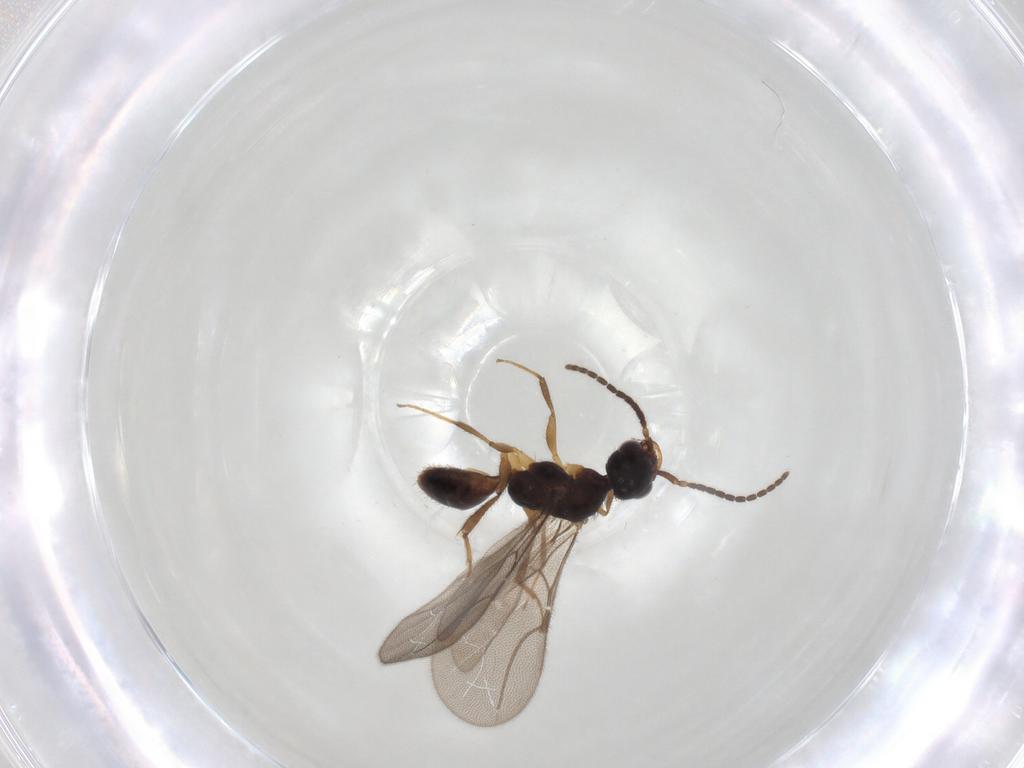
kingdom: Animalia
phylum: Arthropoda
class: Insecta
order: Hymenoptera
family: Bethylidae
